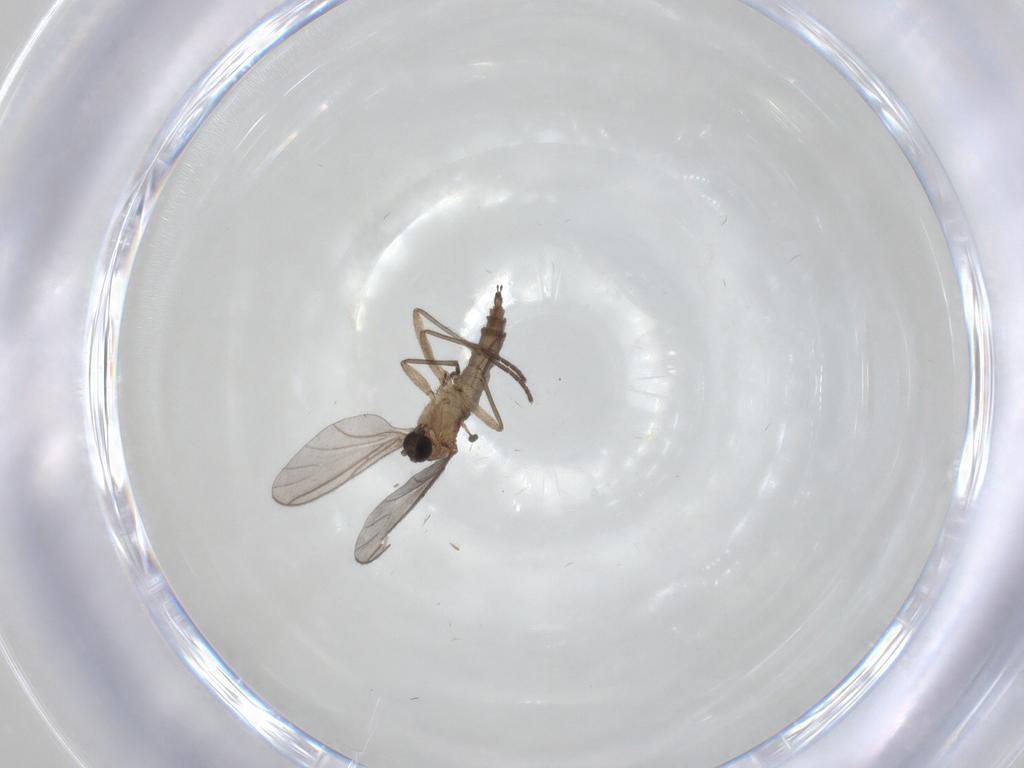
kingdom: Animalia
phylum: Arthropoda
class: Insecta
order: Diptera
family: Sciaridae
